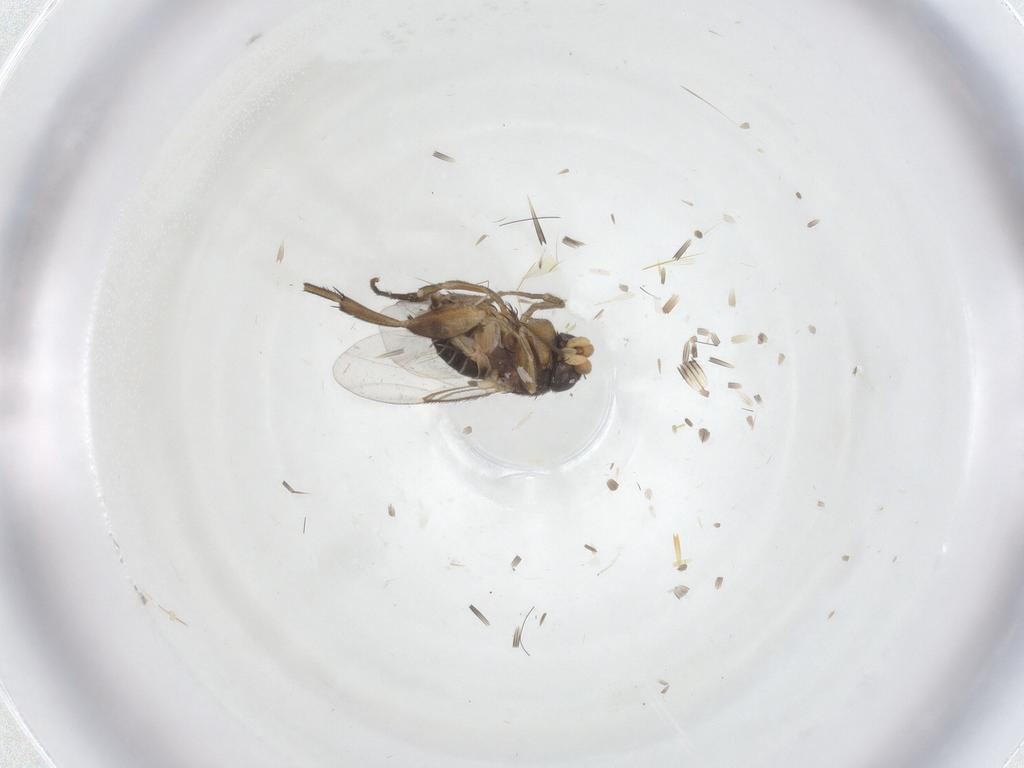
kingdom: Animalia
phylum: Arthropoda
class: Insecta
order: Diptera
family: Phoridae
